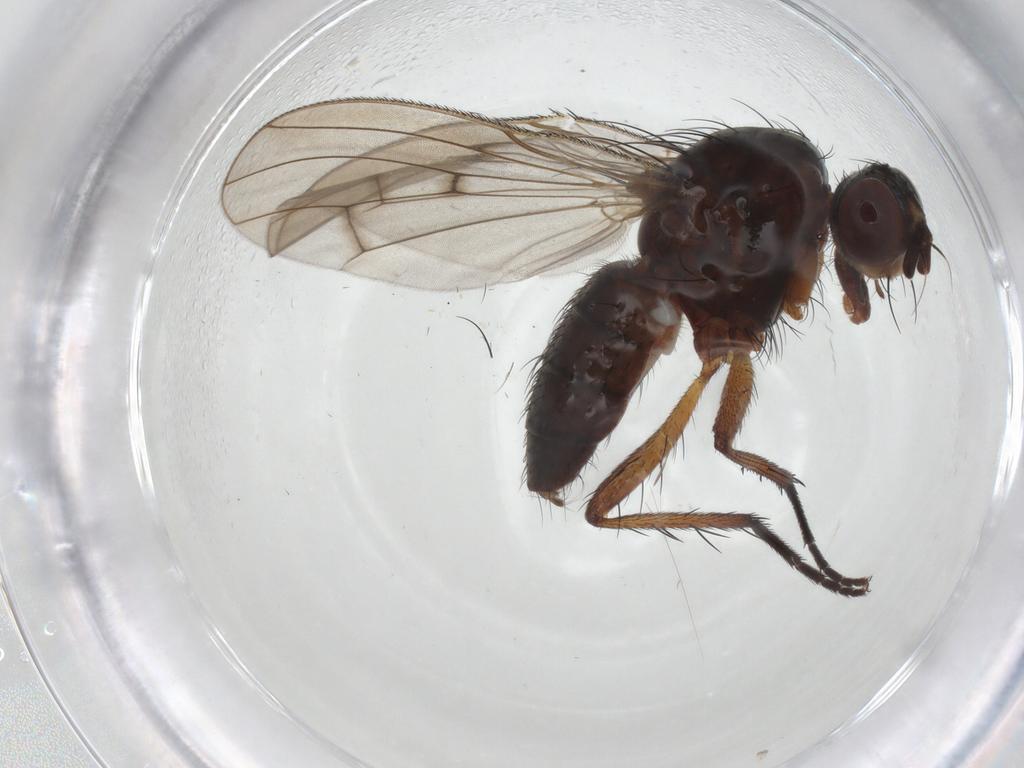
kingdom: Animalia
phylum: Arthropoda
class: Insecta
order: Diptera
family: Anthomyiidae
